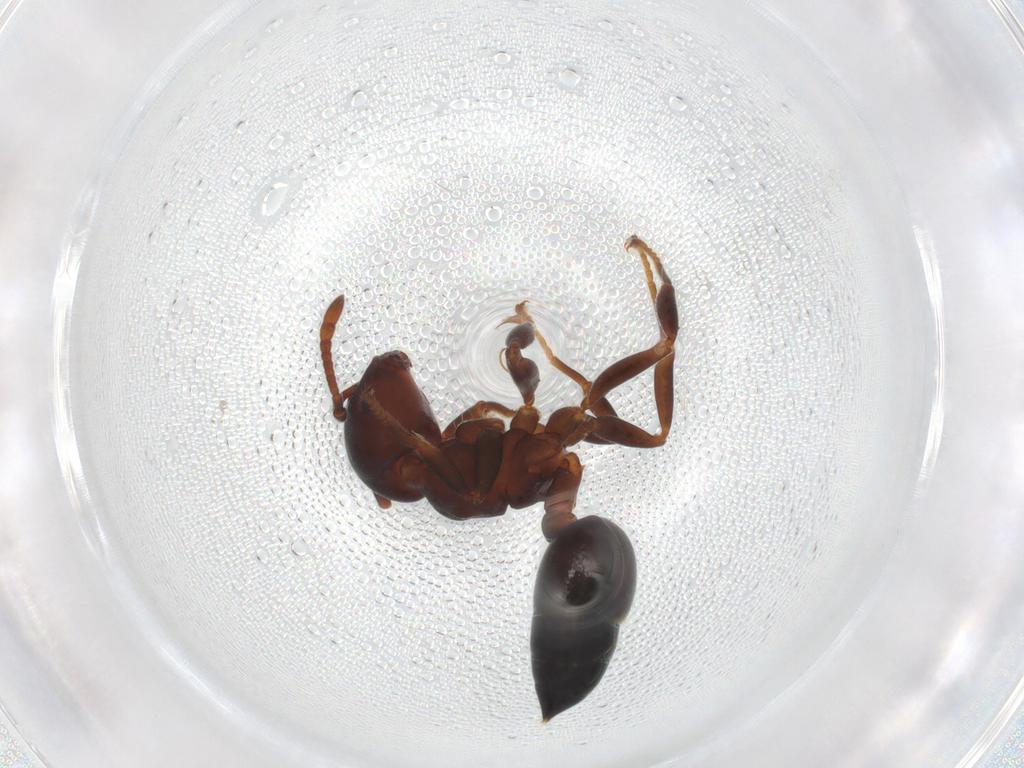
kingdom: Animalia
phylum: Arthropoda
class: Insecta
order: Hymenoptera
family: Formicidae
